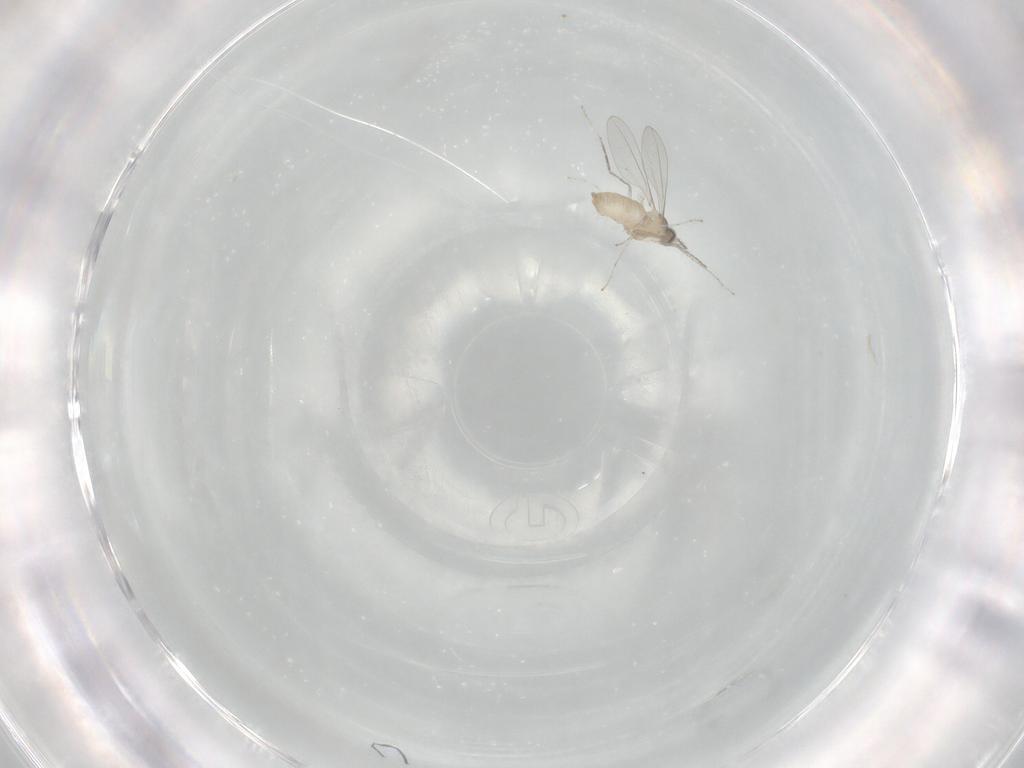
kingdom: Animalia
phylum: Arthropoda
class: Insecta
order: Diptera
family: Cecidomyiidae
